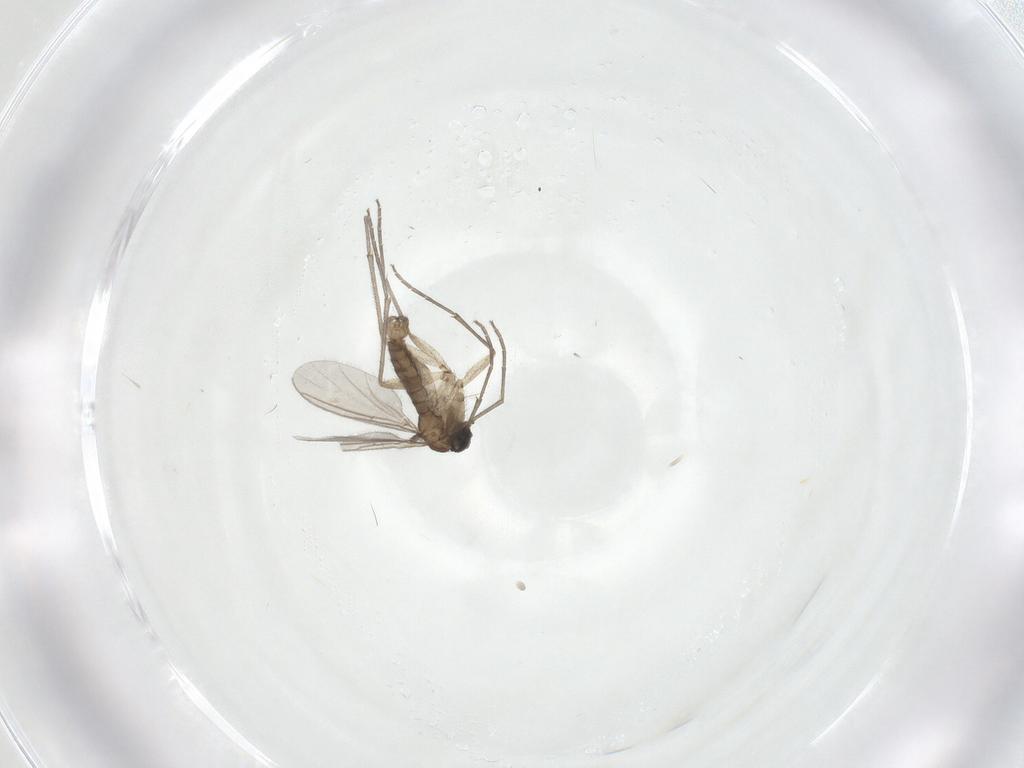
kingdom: Animalia
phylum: Arthropoda
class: Insecta
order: Diptera
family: Sciaridae
